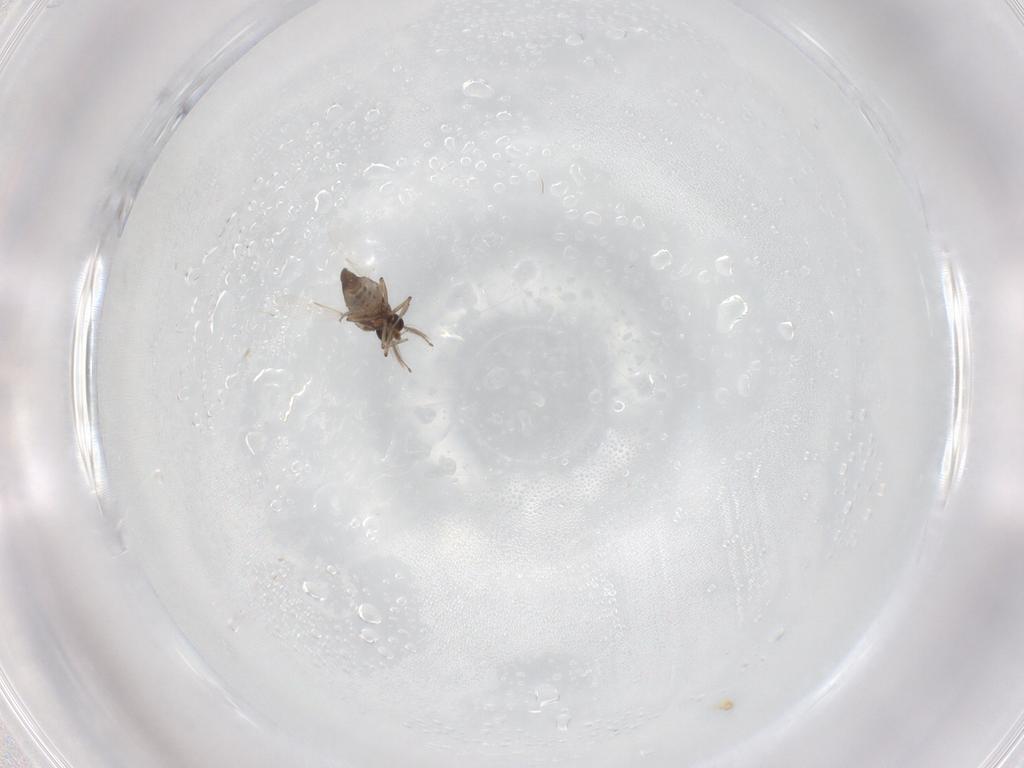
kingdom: Animalia
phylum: Arthropoda
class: Insecta
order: Diptera
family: Ceratopogonidae
